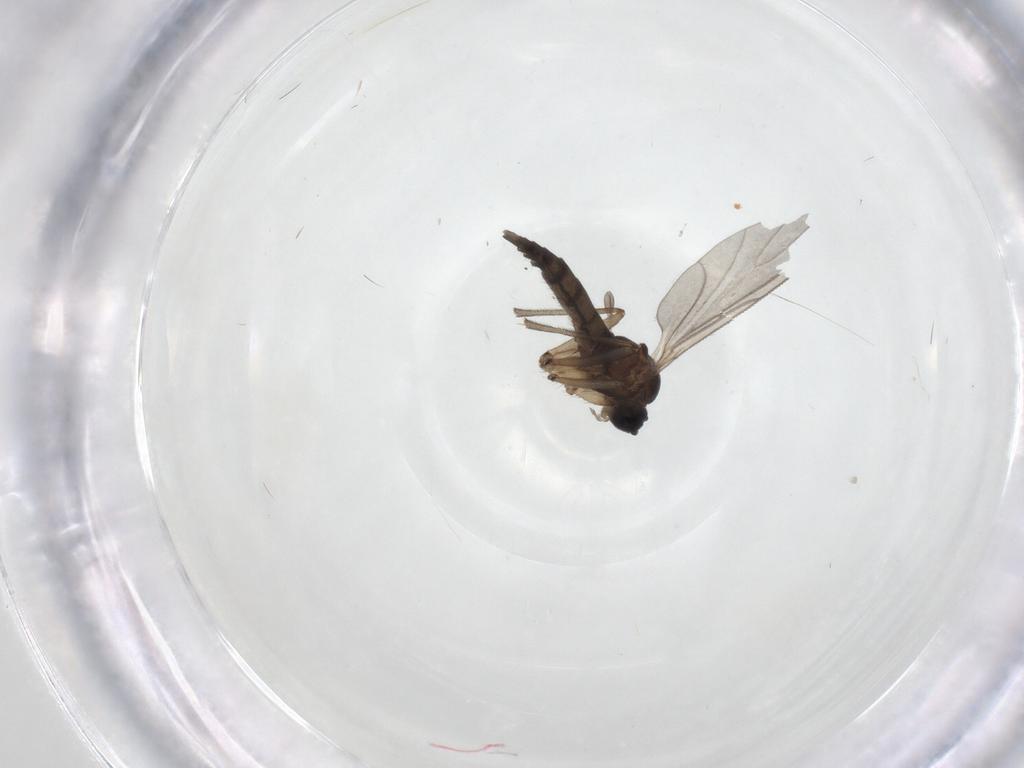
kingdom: Animalia
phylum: Arthropoda
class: Insecta
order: Diptera
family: Sciaridae
